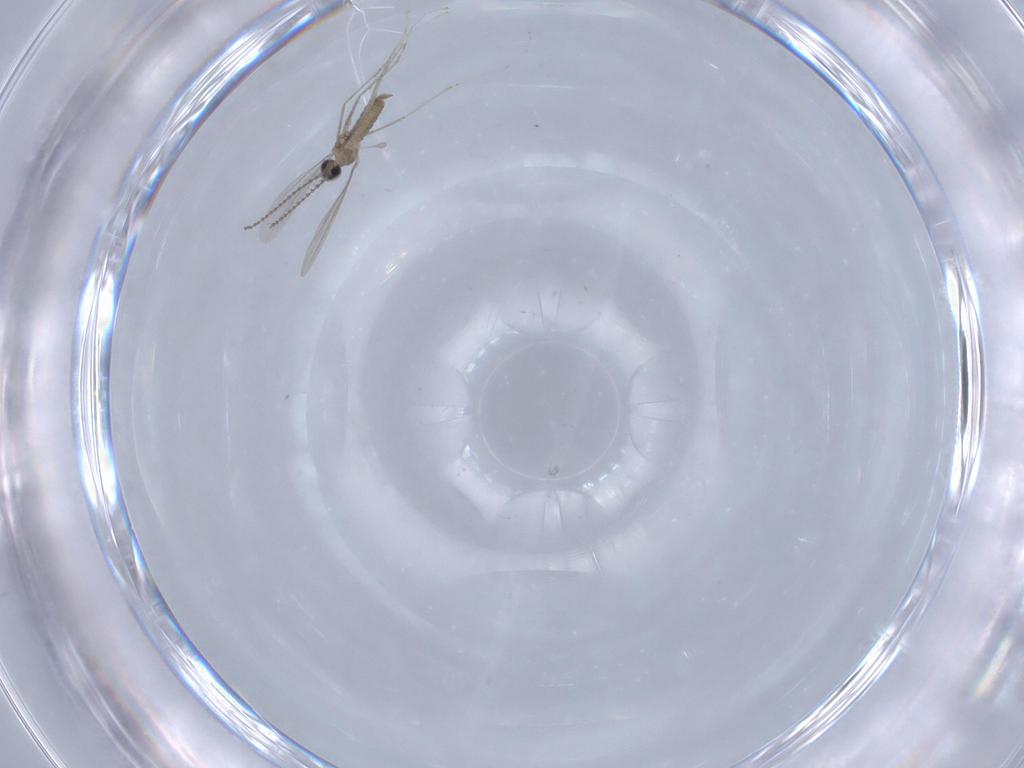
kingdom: Animalia
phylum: Arthropoda
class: Insecta
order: Diptera
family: Cecidomyiidae
